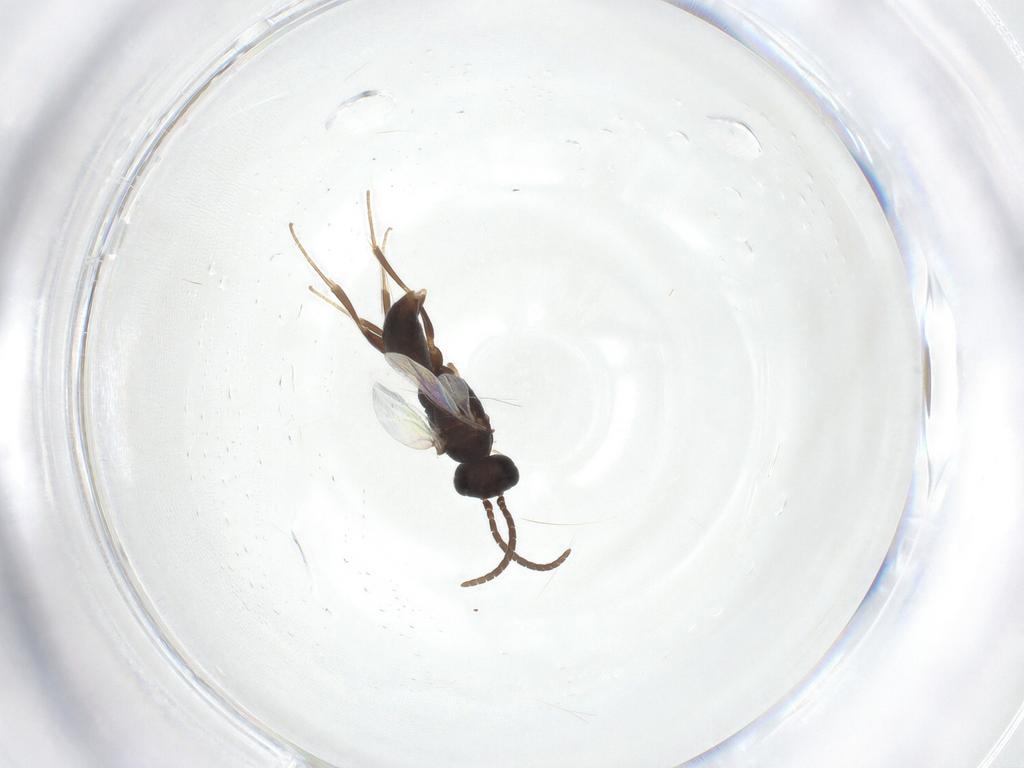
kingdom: Animalia
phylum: Arthropoda
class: Insecta
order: Hymenoptera
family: Bethylidae
